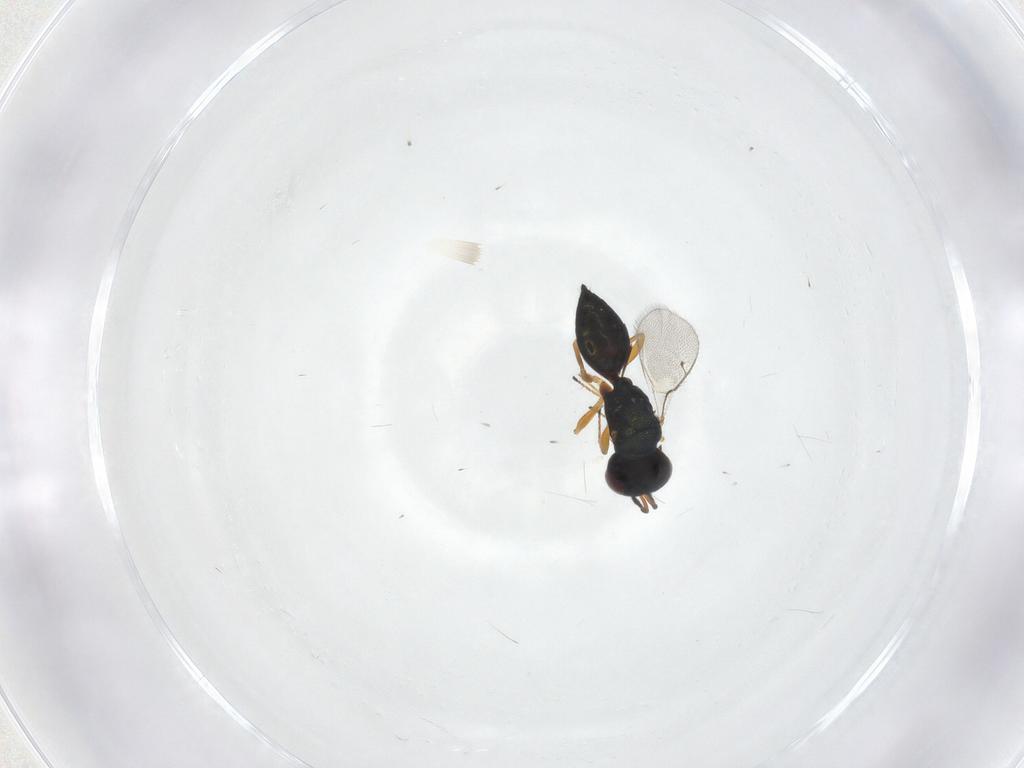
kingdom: Animalia
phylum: Arthropoda
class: Insecta
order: Hymenoptera
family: Pteromalidae
